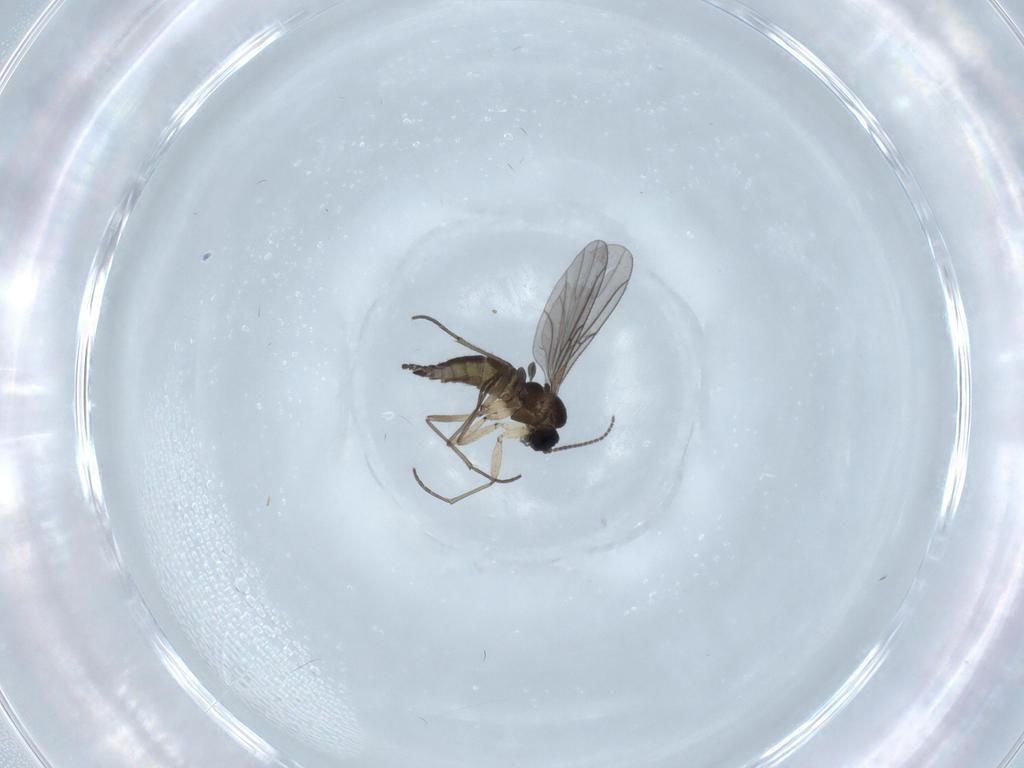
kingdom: Animalia
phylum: Arthropoda
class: Insecta
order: Diptera
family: Sciaridae
